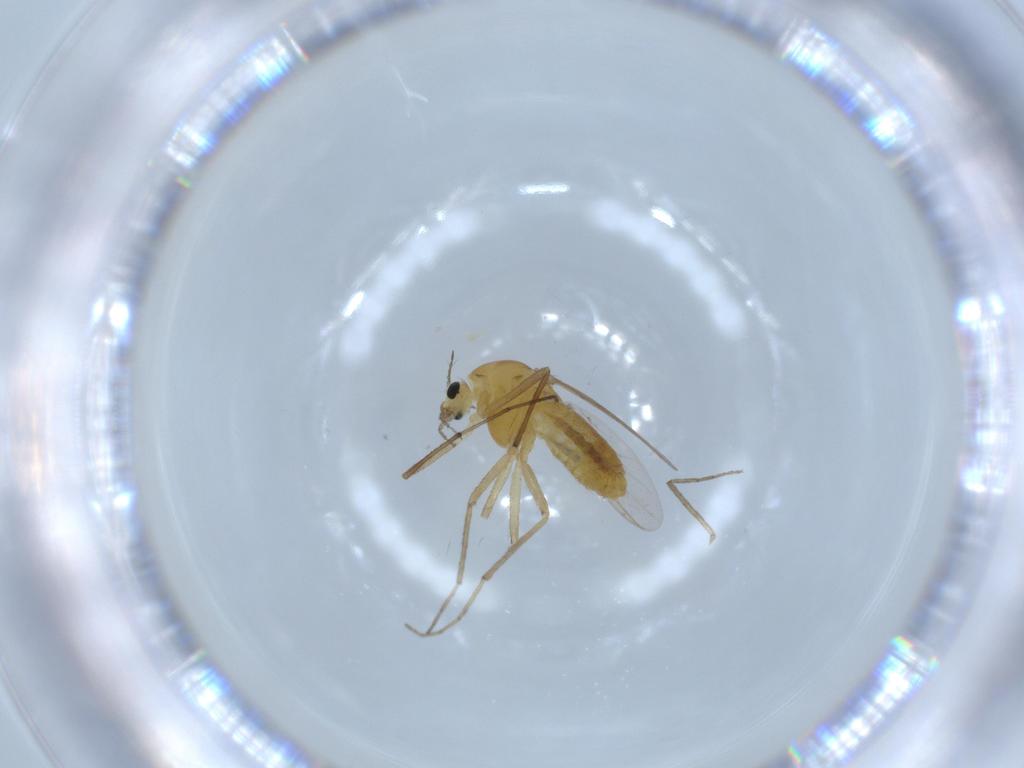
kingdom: Animalia
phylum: Arthropoda
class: Insecta
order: Diptera
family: Chironomidae
